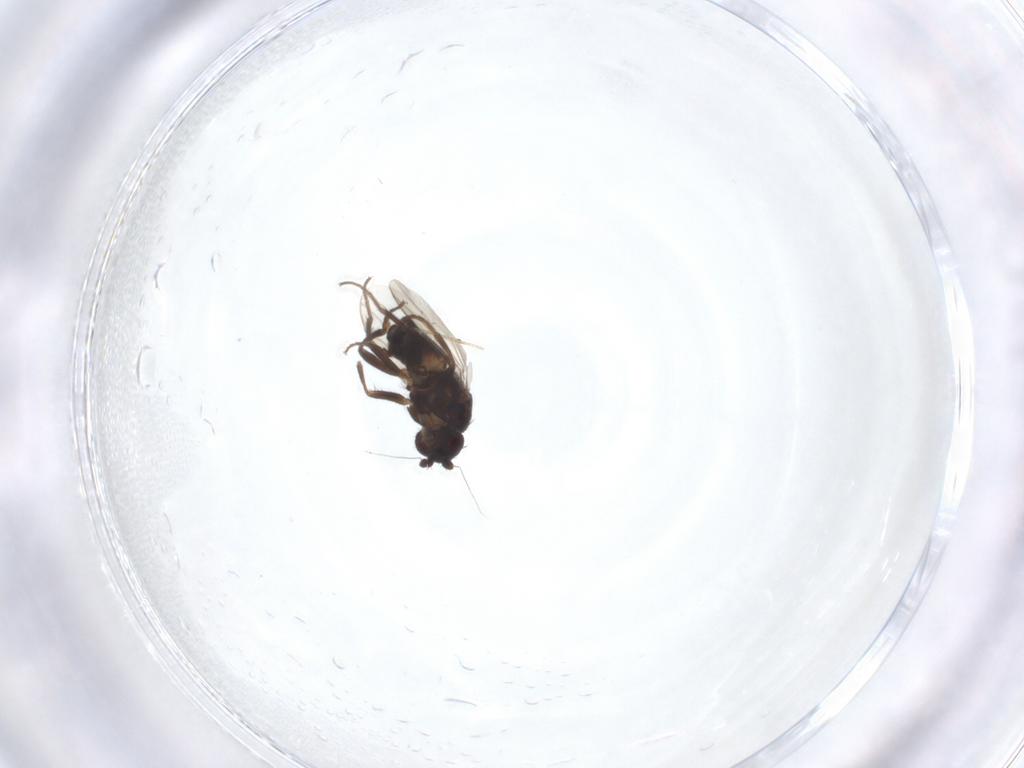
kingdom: Animalia
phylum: Arthropoda
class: Insecta
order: Diptera
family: Sphaeroceridae
